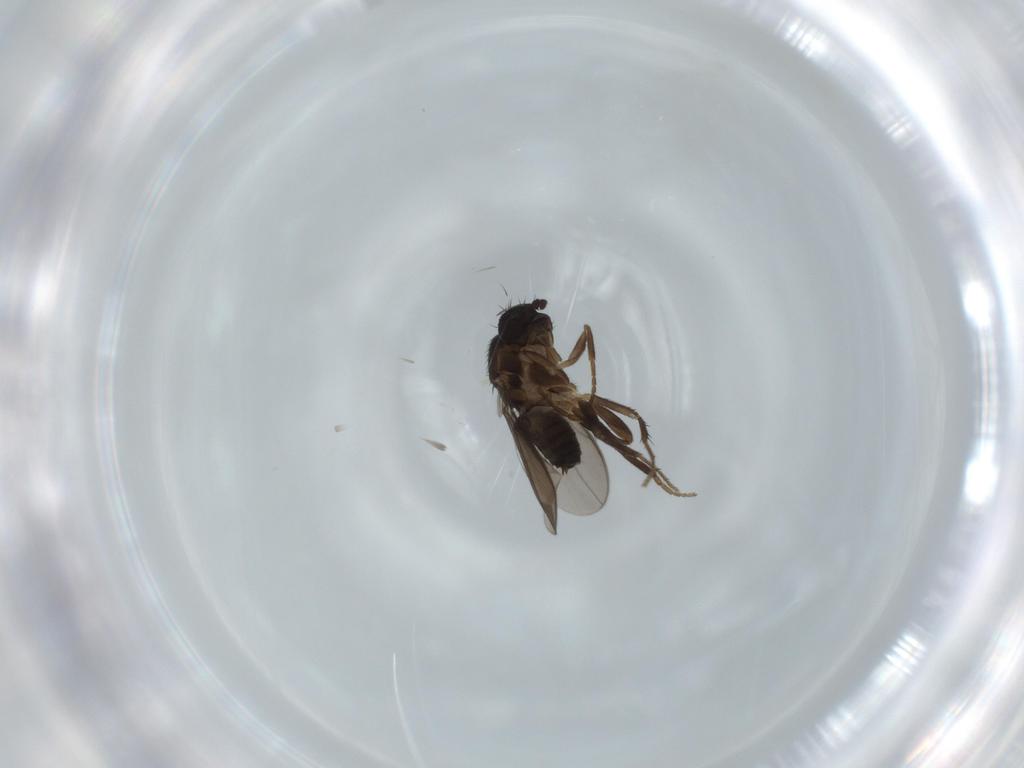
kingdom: Animalia
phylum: Arthropoda
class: Insecta
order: Diptera
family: Sphaeroceridae
